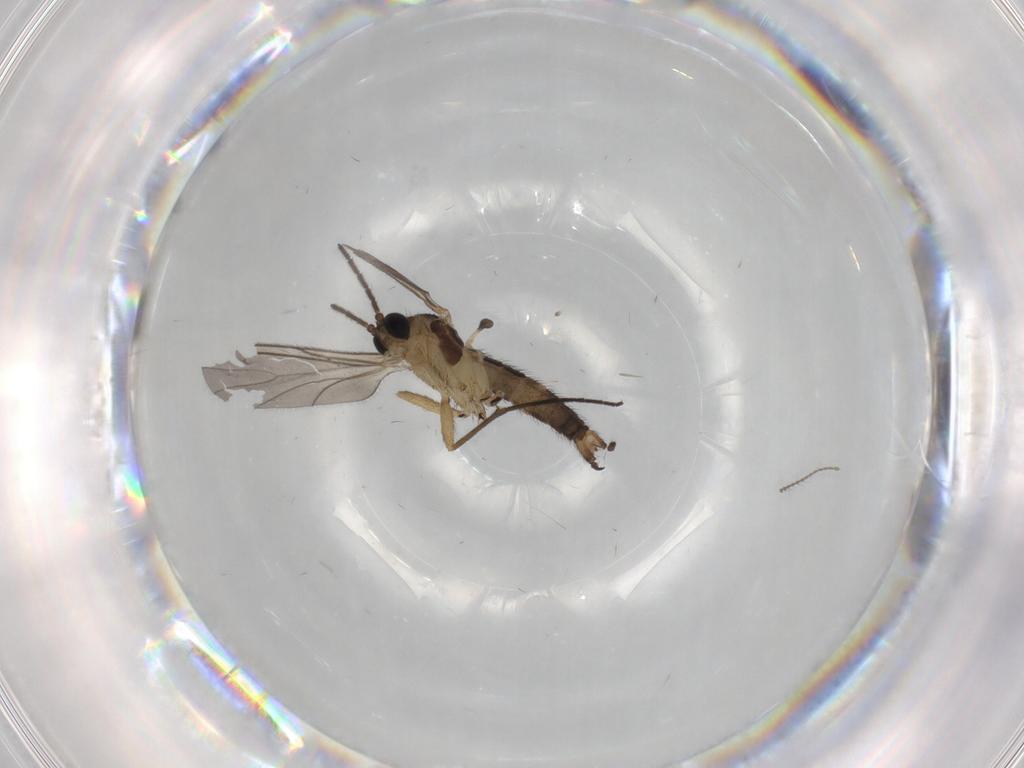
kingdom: Animalia
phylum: Arthropoda
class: Insecta
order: Diptera
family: Ceratopogonidae
